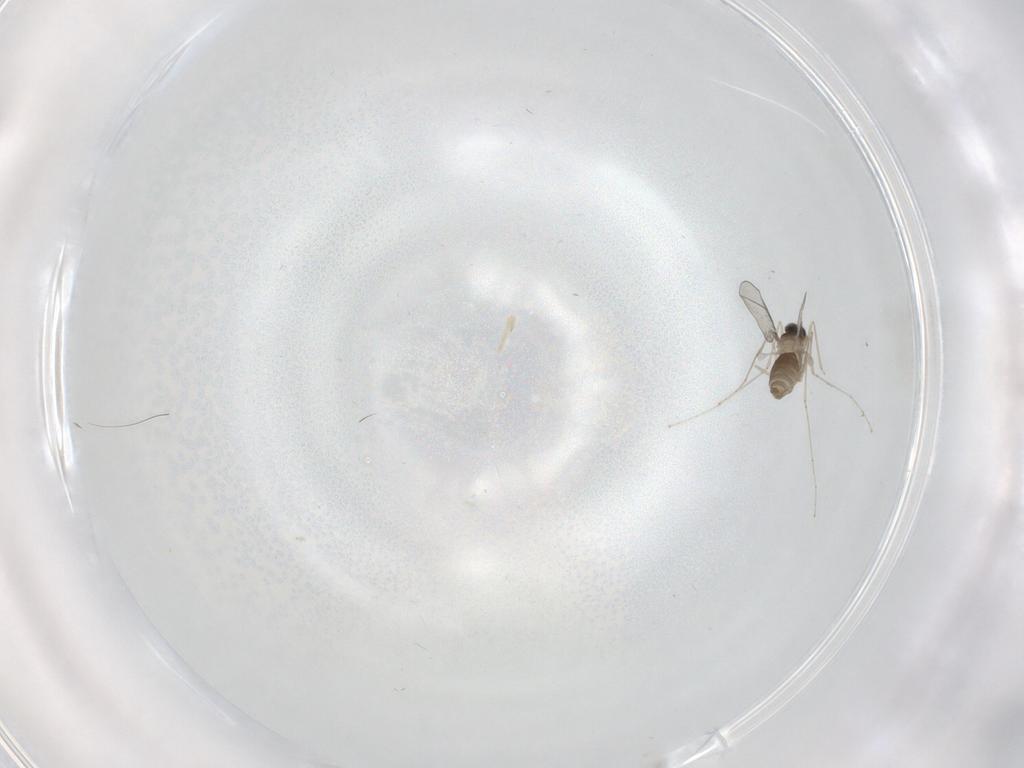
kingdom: Animalia
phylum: Arthropoda
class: Insecta
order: Diptera
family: Cecidomyiidae
